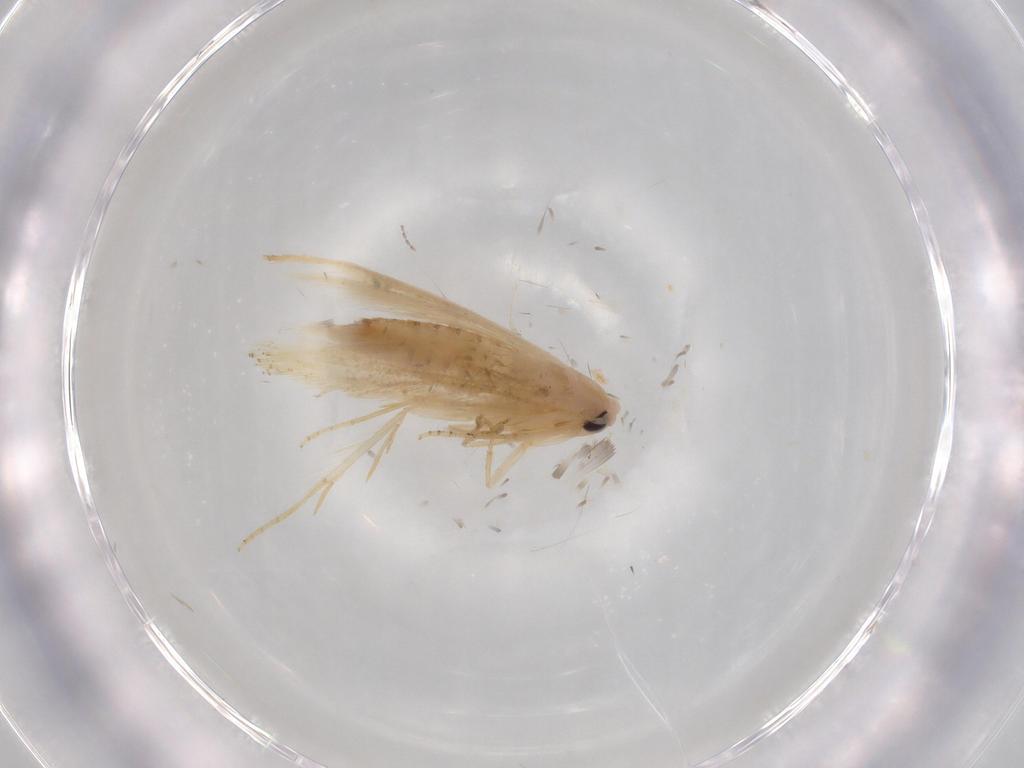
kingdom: Animalia
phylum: Arthropoda
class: Insecta
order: Lepidoptera
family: Bucculatricidae
